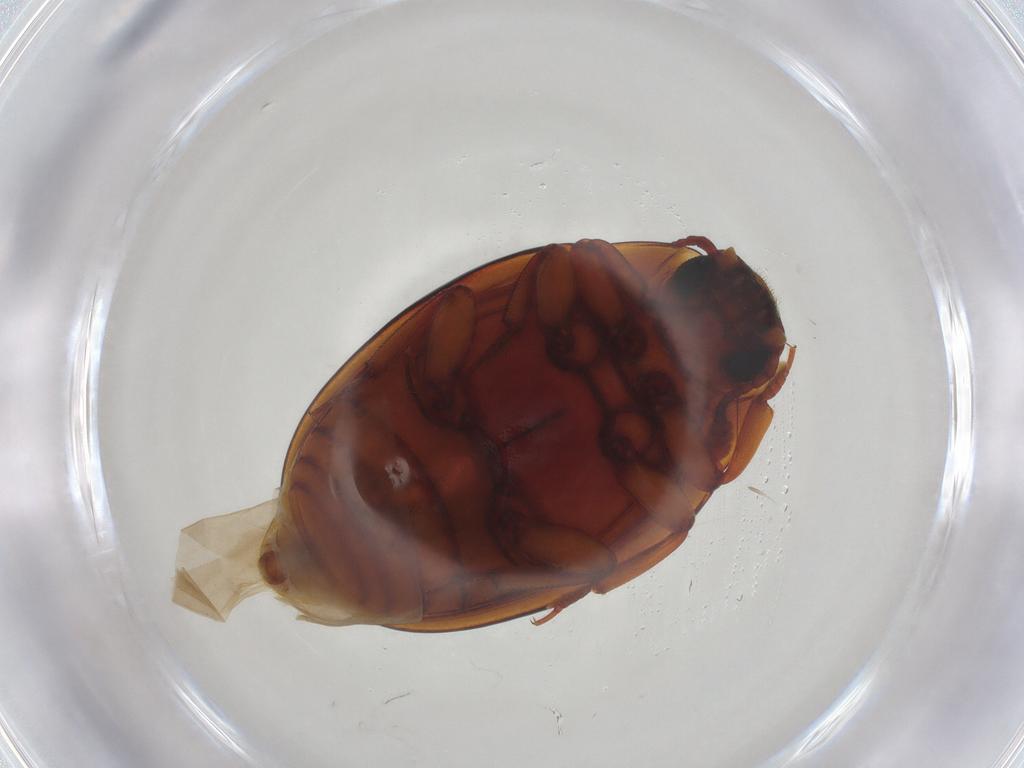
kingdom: Animalia
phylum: Arthropoda
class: Insecta
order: Coleoptera
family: Zopheridae
